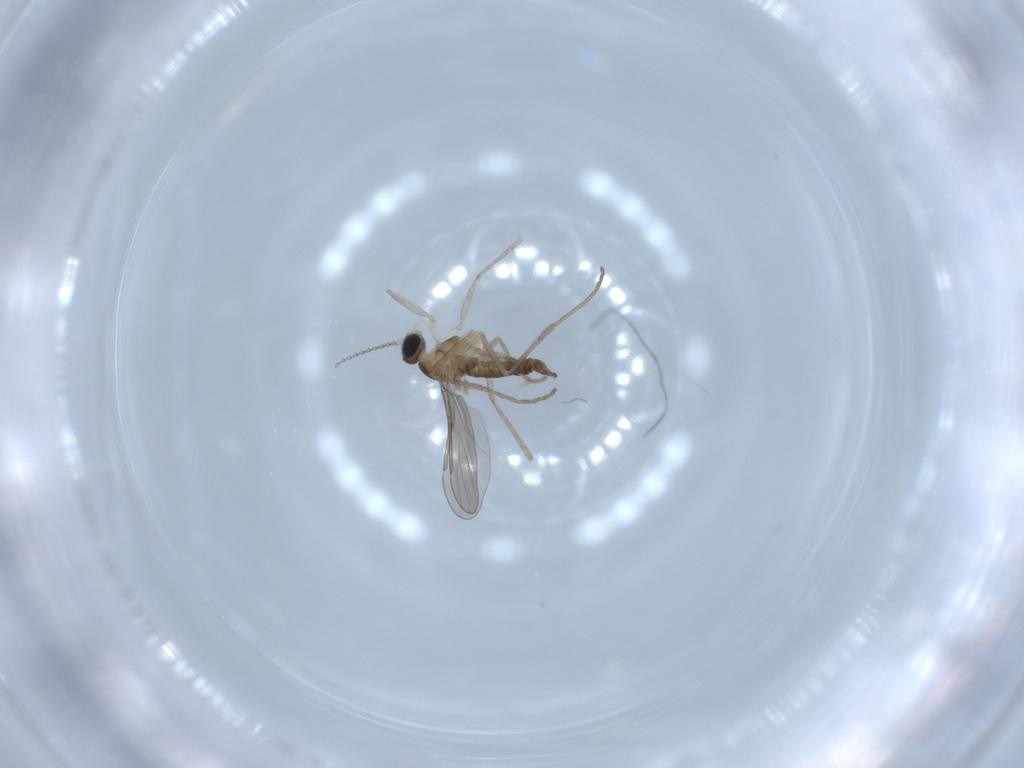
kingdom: Animalia
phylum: Arthropoda
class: Insecta
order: Diptera
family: Cecidomyiidae
